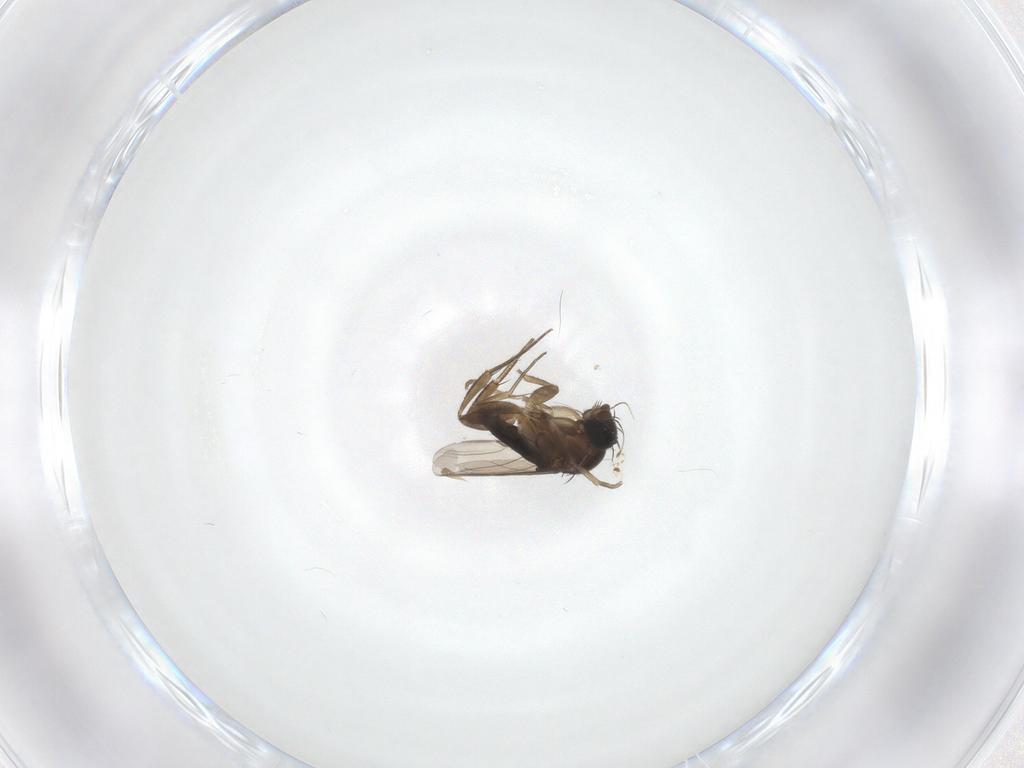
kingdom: Animalia
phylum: Arthropoda
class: Insecta
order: Diptera
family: Phoridae
